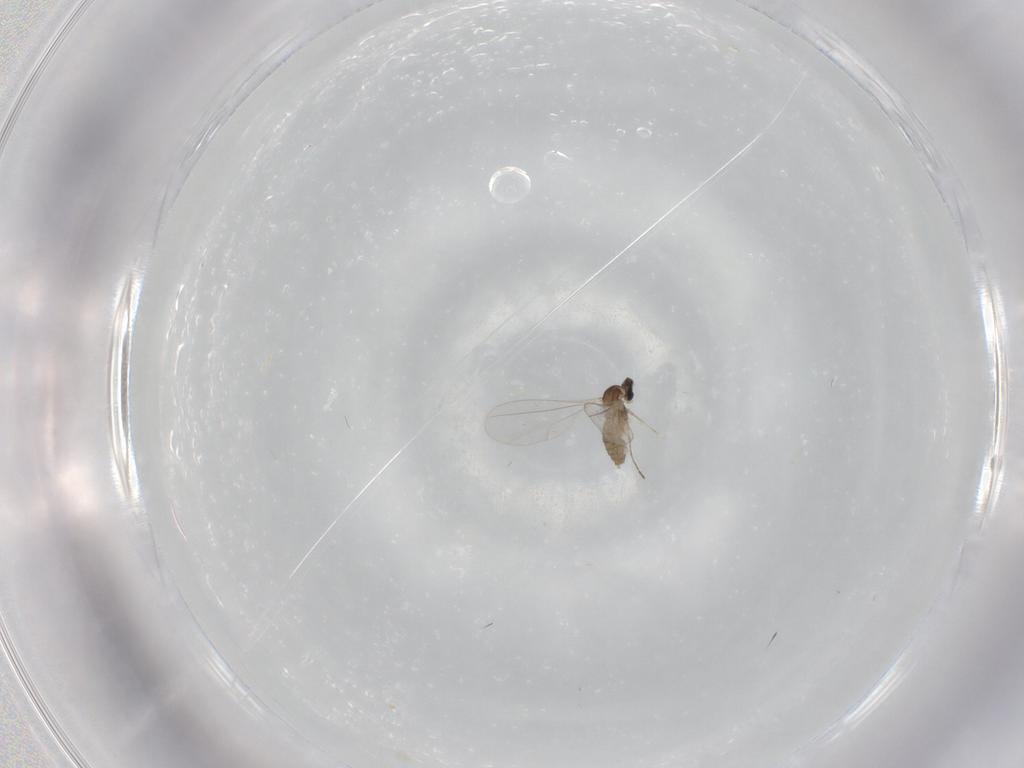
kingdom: Animalia
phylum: Arthropoda
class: Insecta
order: Diptera
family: Cecidomyiidae
